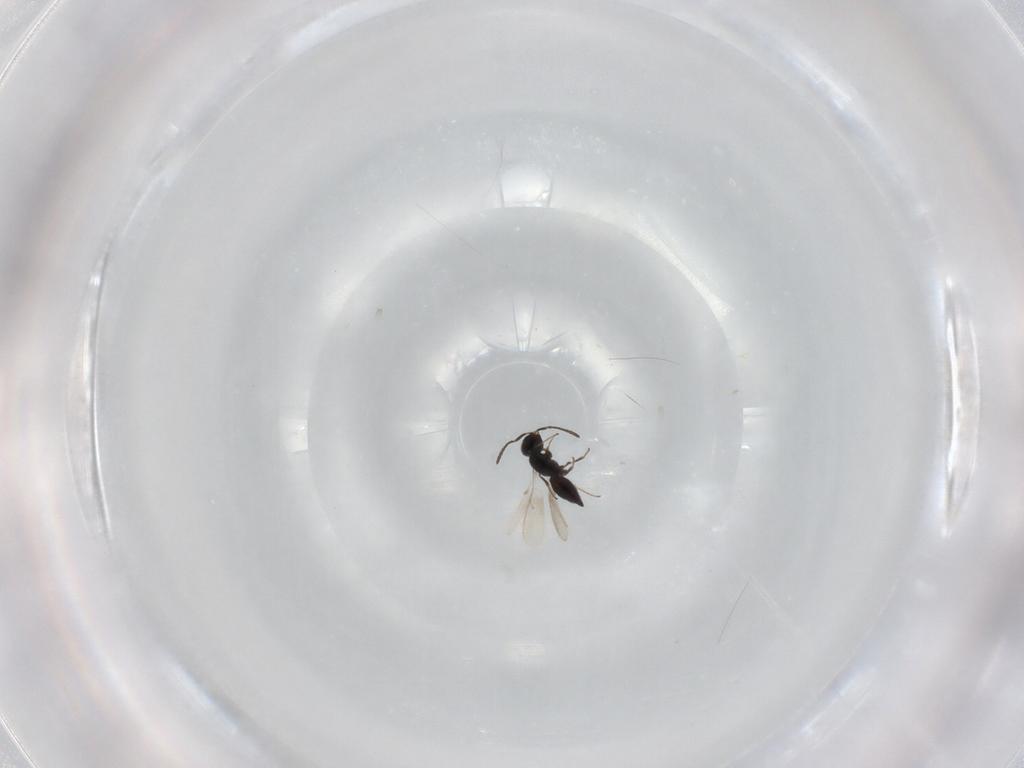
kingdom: Animalia
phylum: Arthropoda
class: Insecta
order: Hymenoptera
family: Scelionidae
